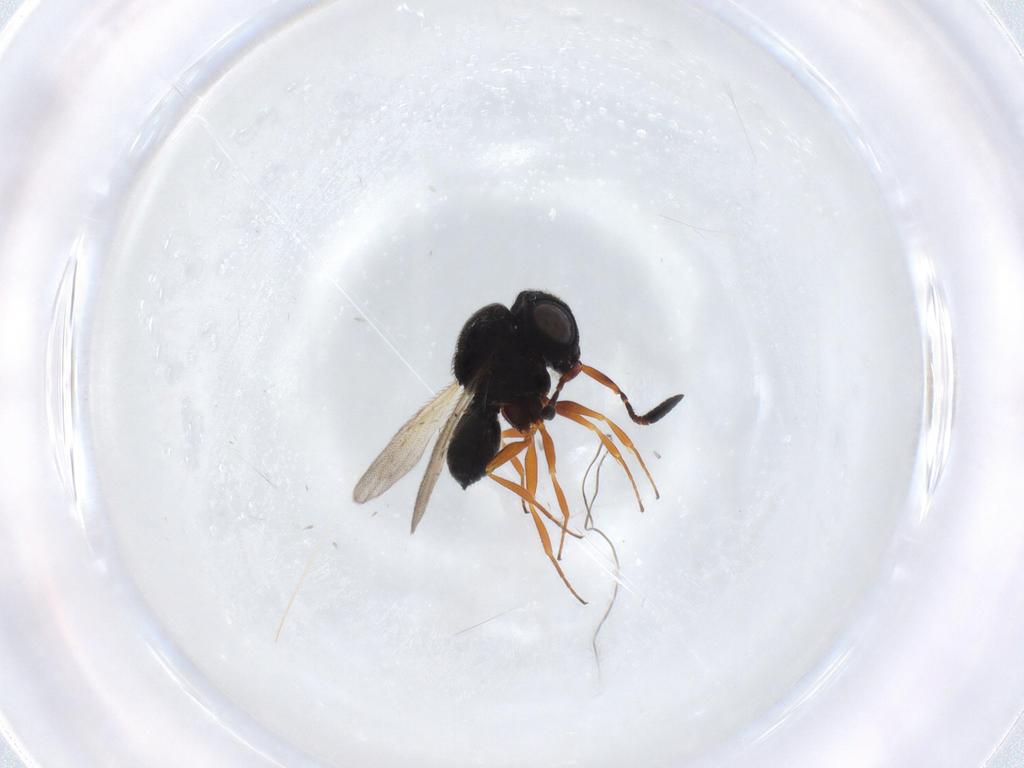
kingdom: Animalia
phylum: Arthropoda
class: Insecta
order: Hymenoptera
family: Scelionidae
